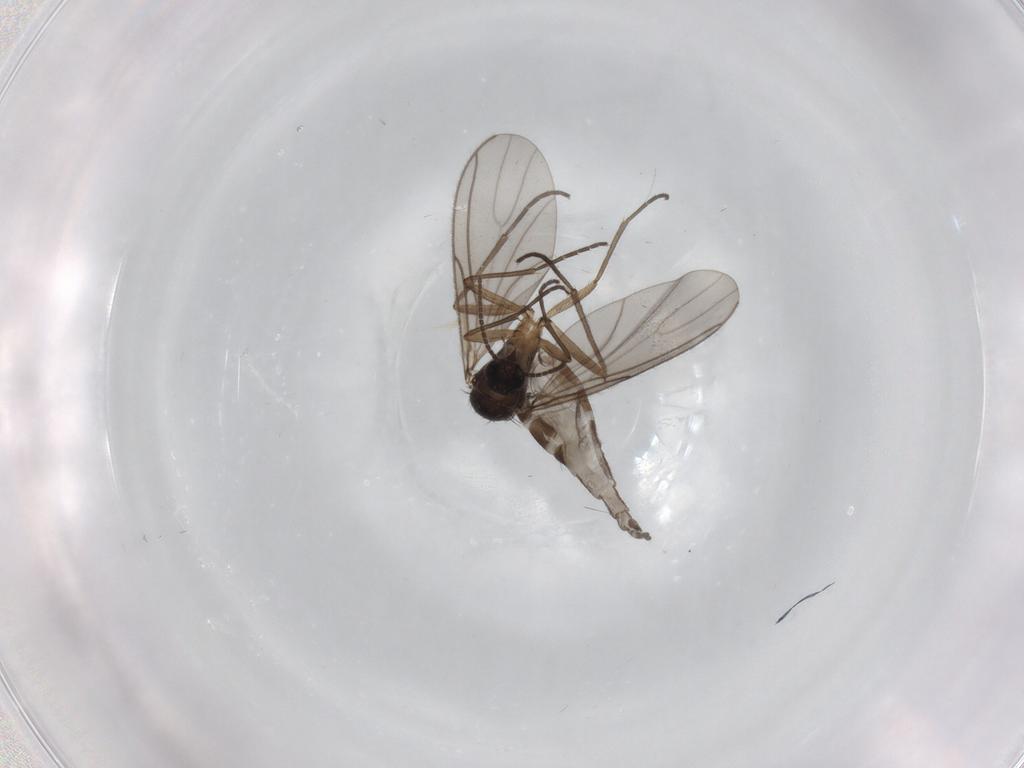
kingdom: Animalia
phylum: Arthropoda
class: Insecta
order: Diptera
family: Sciaridae
